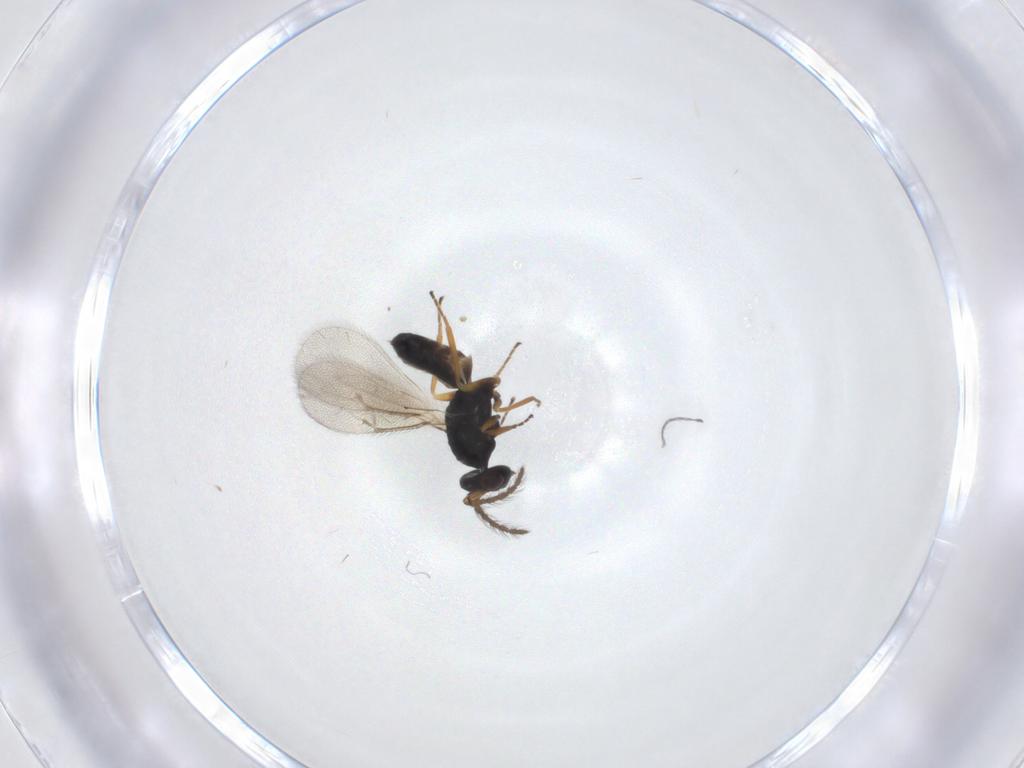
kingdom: Animalia
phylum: Arthropoda
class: Insecta
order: Hymenoptera
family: Eulophidae
